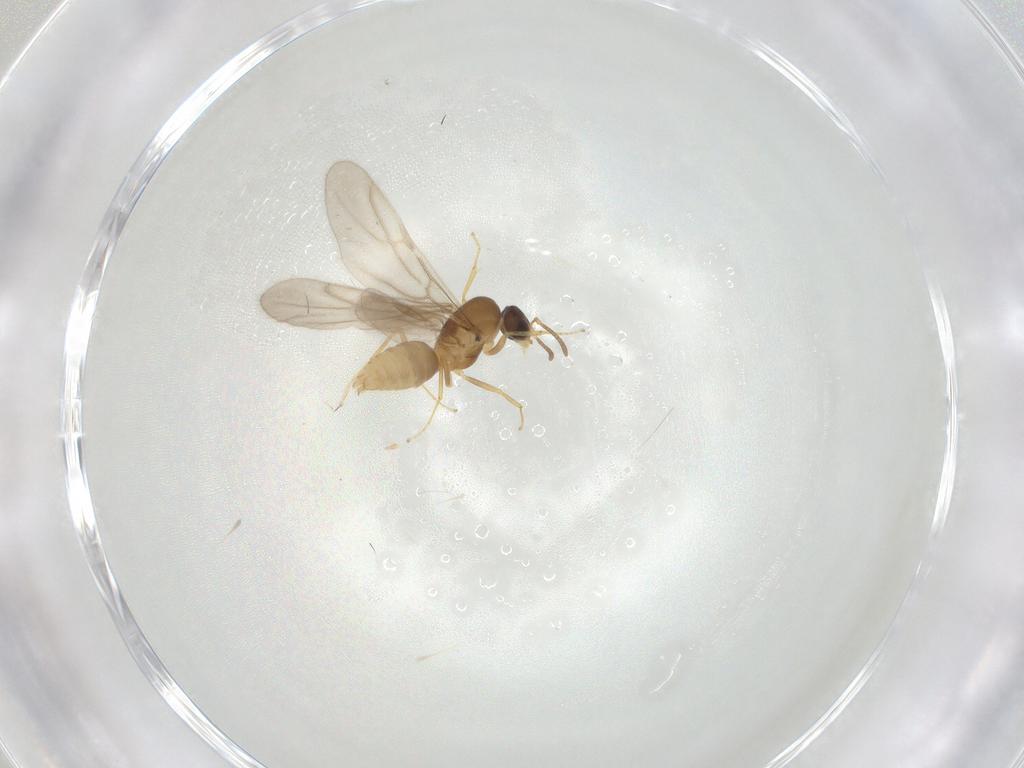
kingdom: Animalia
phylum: Arthropoda
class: Insecta
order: Hymenoptera
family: Formicidae
